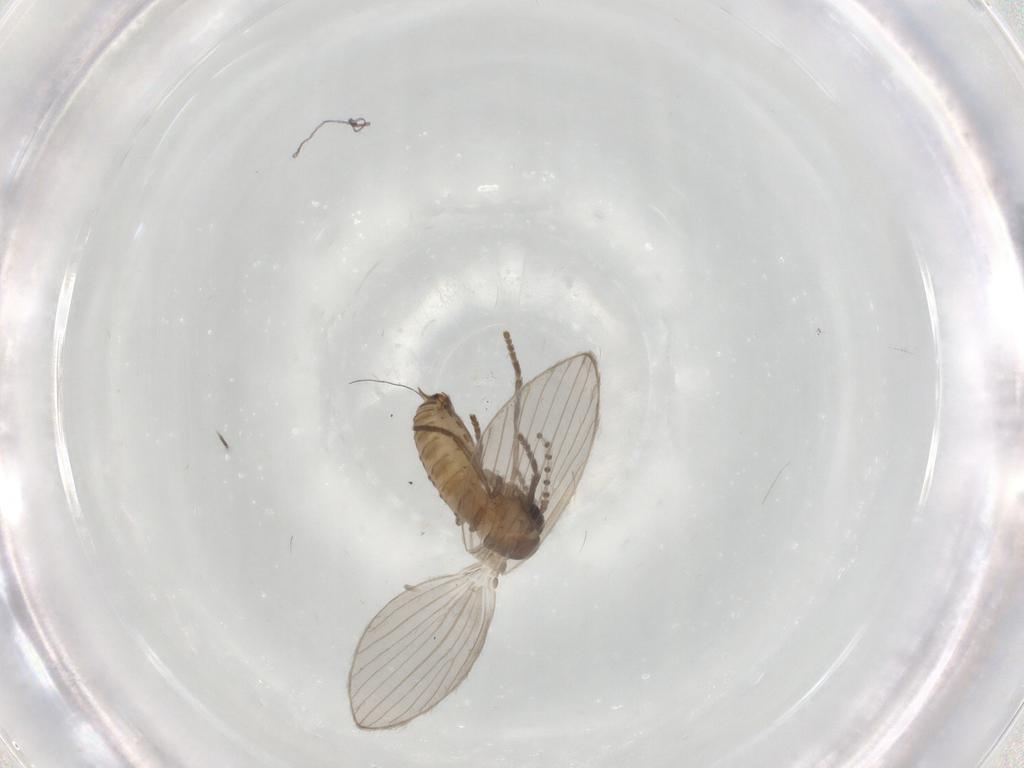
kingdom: Animalia
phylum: Arthropoda
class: Insecta
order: Diptera
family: Psychodidae
